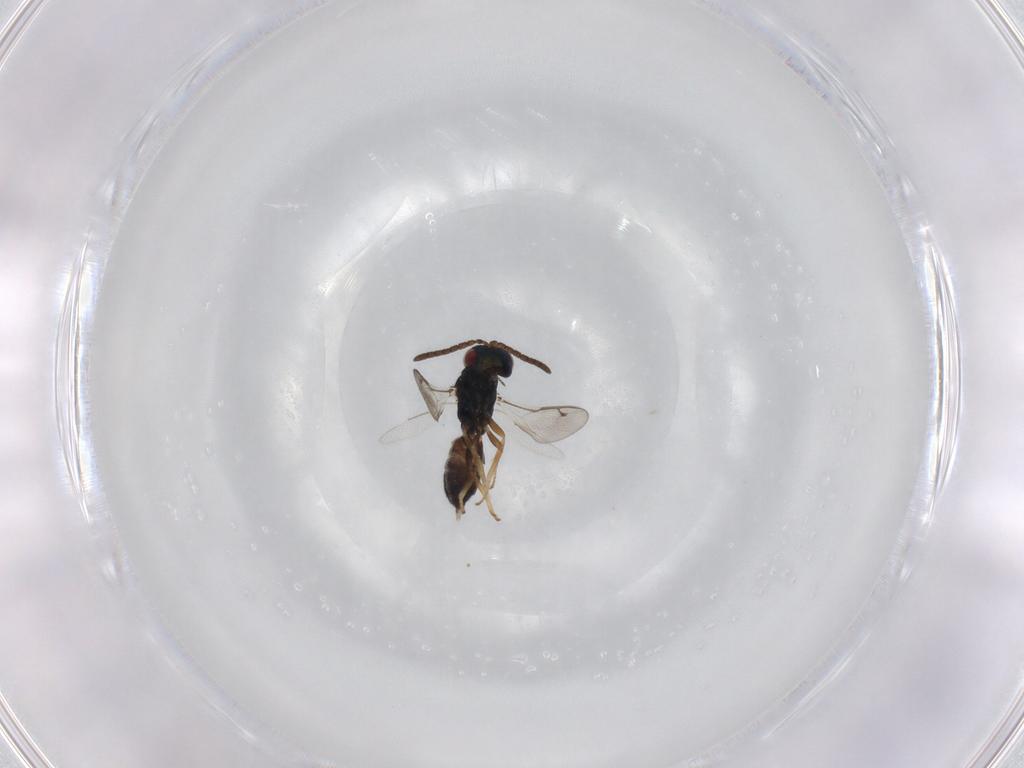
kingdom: Animalia
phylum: Arthropoda
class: Insecta
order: Hymenoptera
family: Pteromalidae
